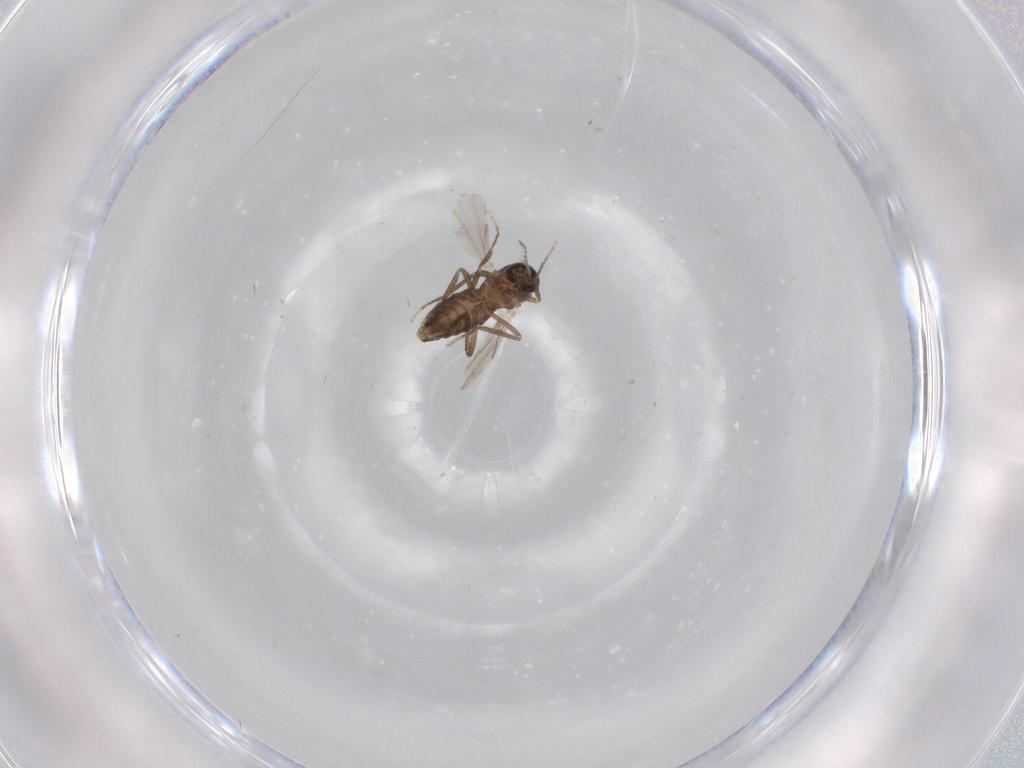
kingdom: Animalia
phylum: Arthropoda
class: Insecta
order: Diptera
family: Ceratopogonidae
